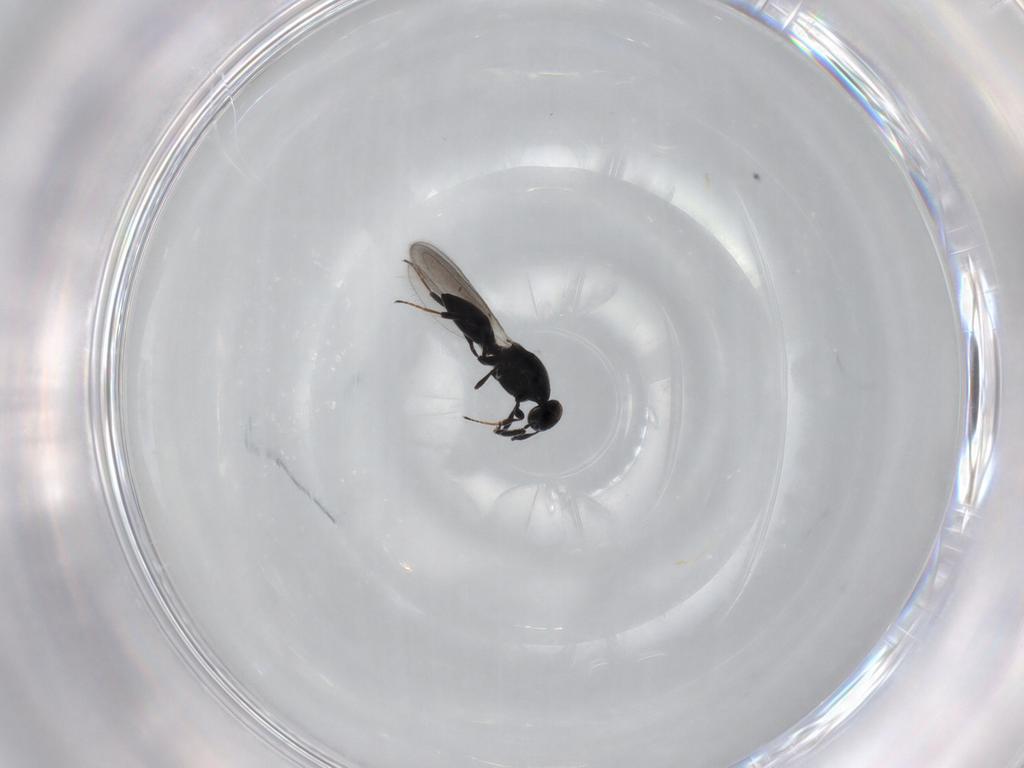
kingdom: Animalia
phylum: Arthropoda
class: Insecta
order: Hymenoptera
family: Platygastridae
